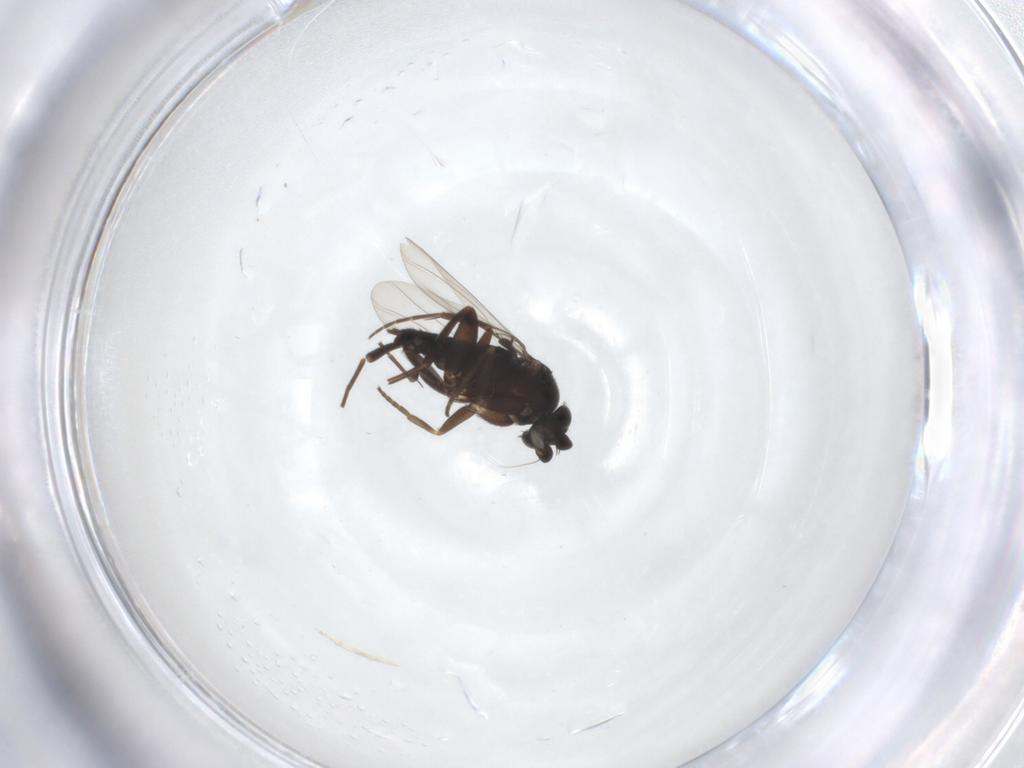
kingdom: Animalia
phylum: Arthropoda
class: Insecta
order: Diptera
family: Phoridae
